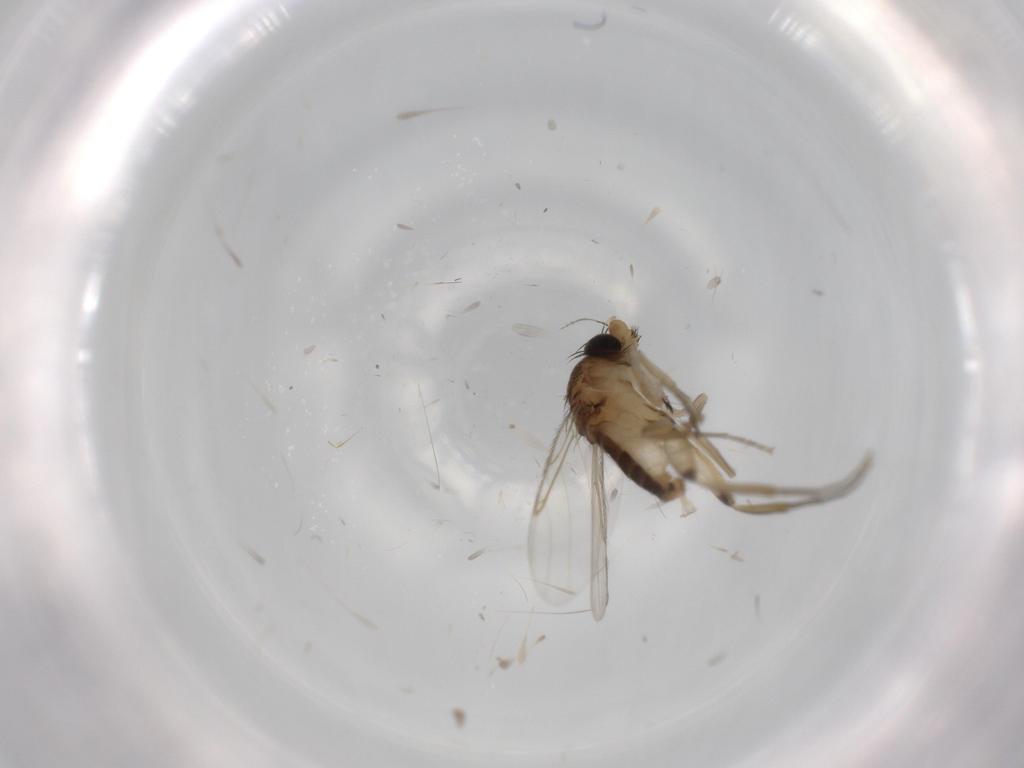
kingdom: Animalia
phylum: Arthropoda
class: Insecta
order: Diptera
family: Phoridae
